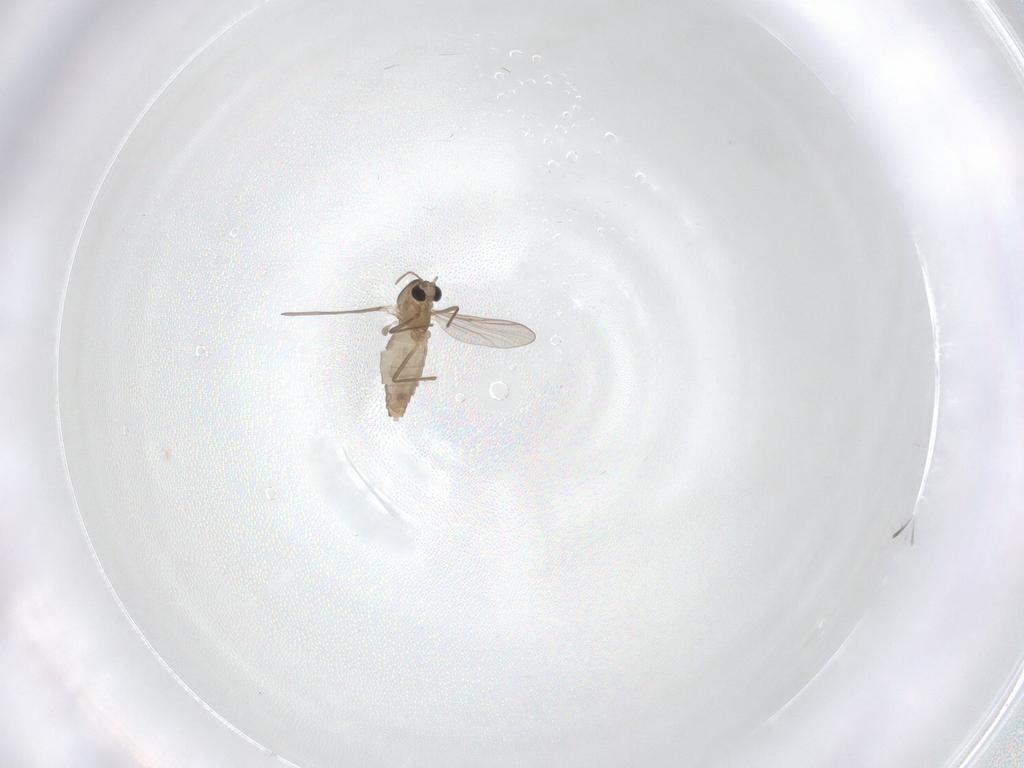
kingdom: Animalia
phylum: Arthropoda
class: Insecta
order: Diptera
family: Chironomidae
